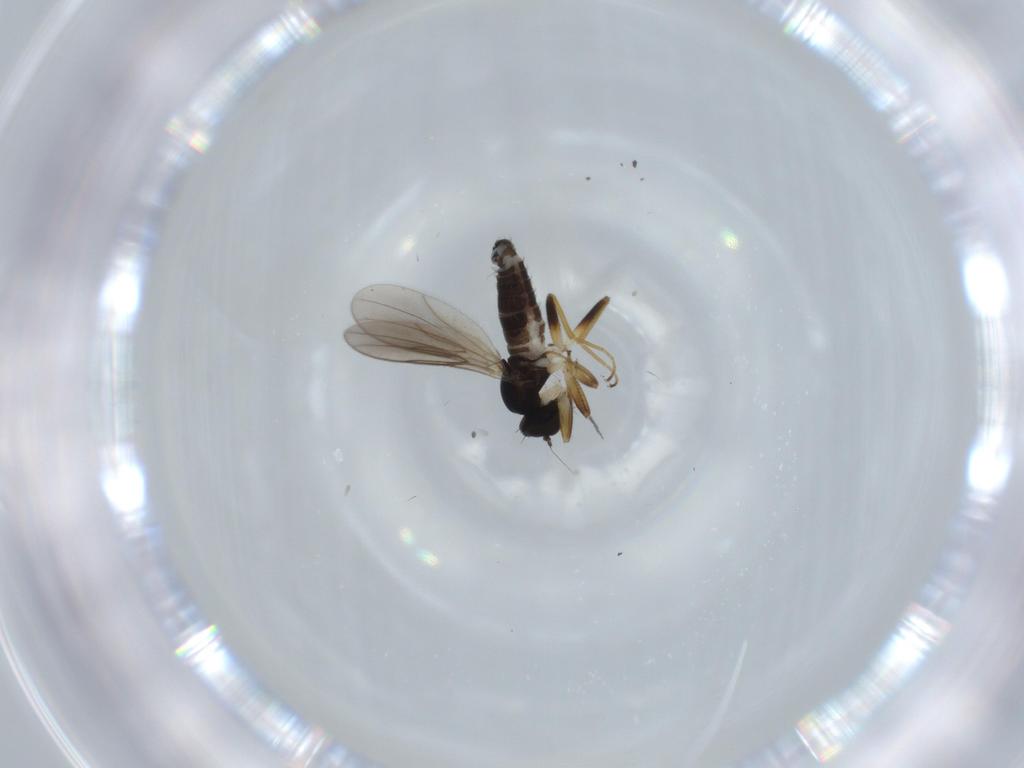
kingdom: Animalia
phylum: Arthropoda
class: Insecta
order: Diptera
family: Hybotidae
